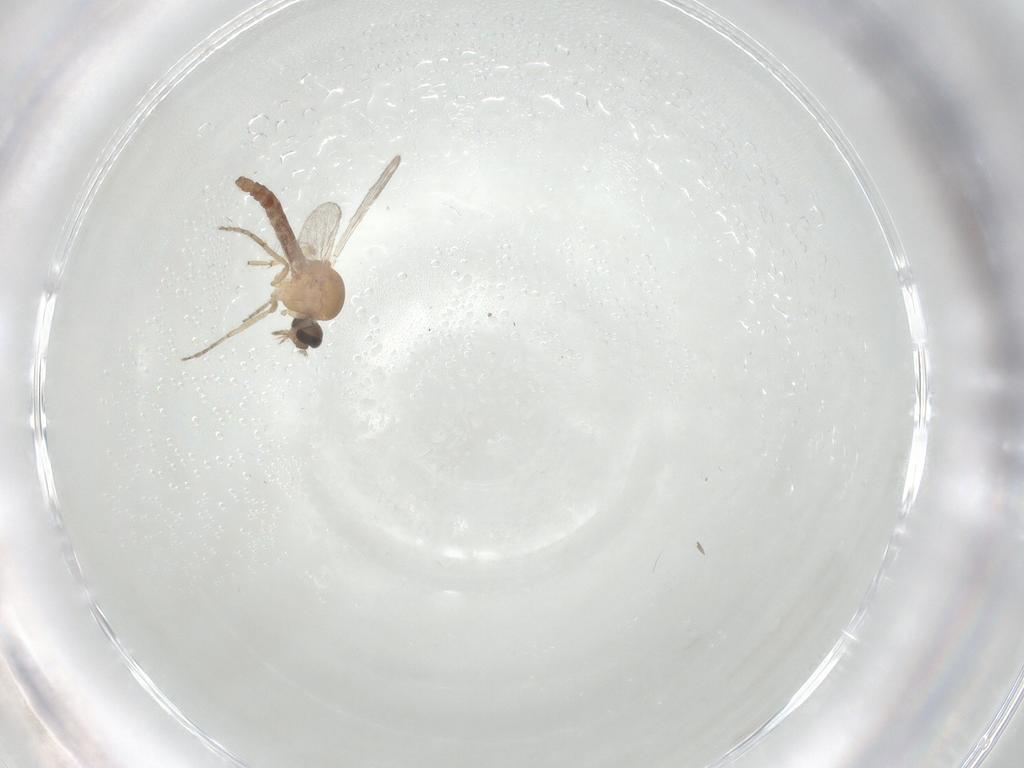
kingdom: Animalia
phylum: Arthropoda
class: Insecta
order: Diptera
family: Ceratopogonidae
